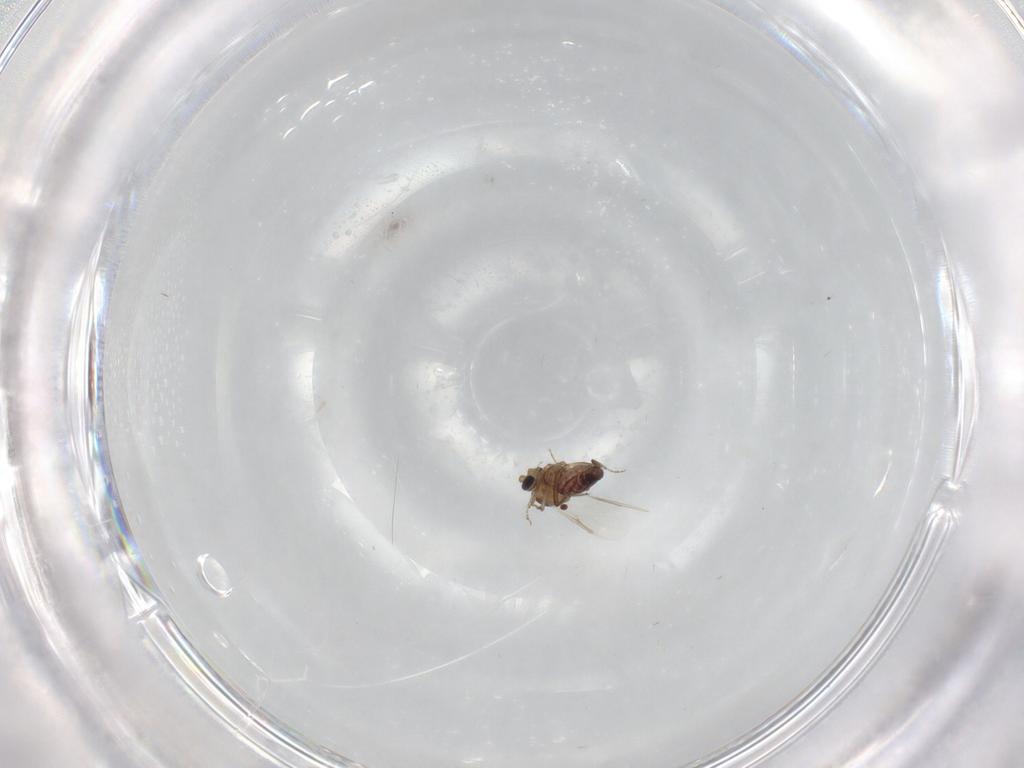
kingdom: Animalia
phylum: Arthropoda
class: Insecta
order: Diptera
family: Ceratopogonidae
